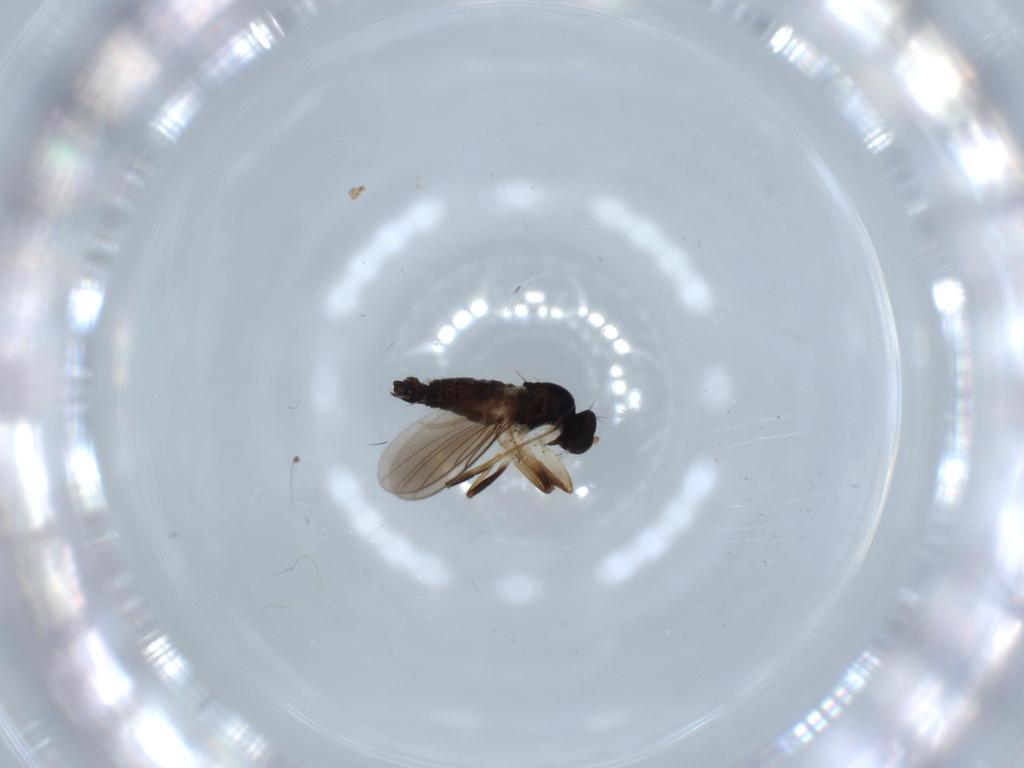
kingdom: Animalia
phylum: Arthropoda
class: Insecta
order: Diptera
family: Hybotidae
